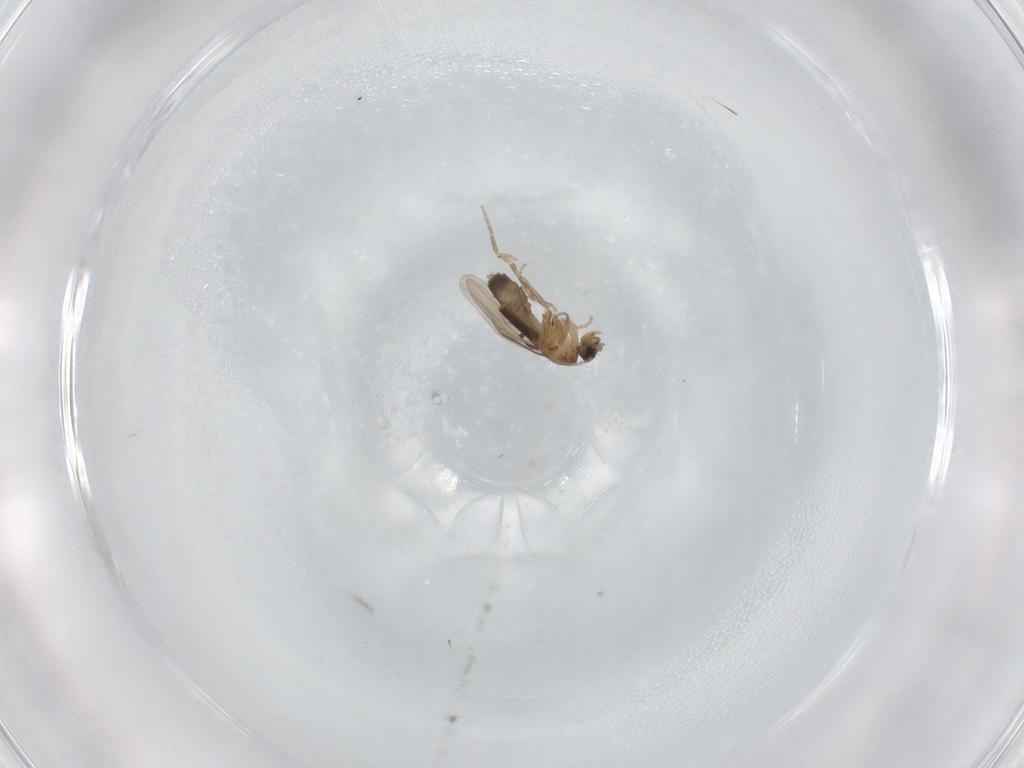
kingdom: Animalia
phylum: Arthropoda
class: Insecta
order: Diptera
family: Phoridae
